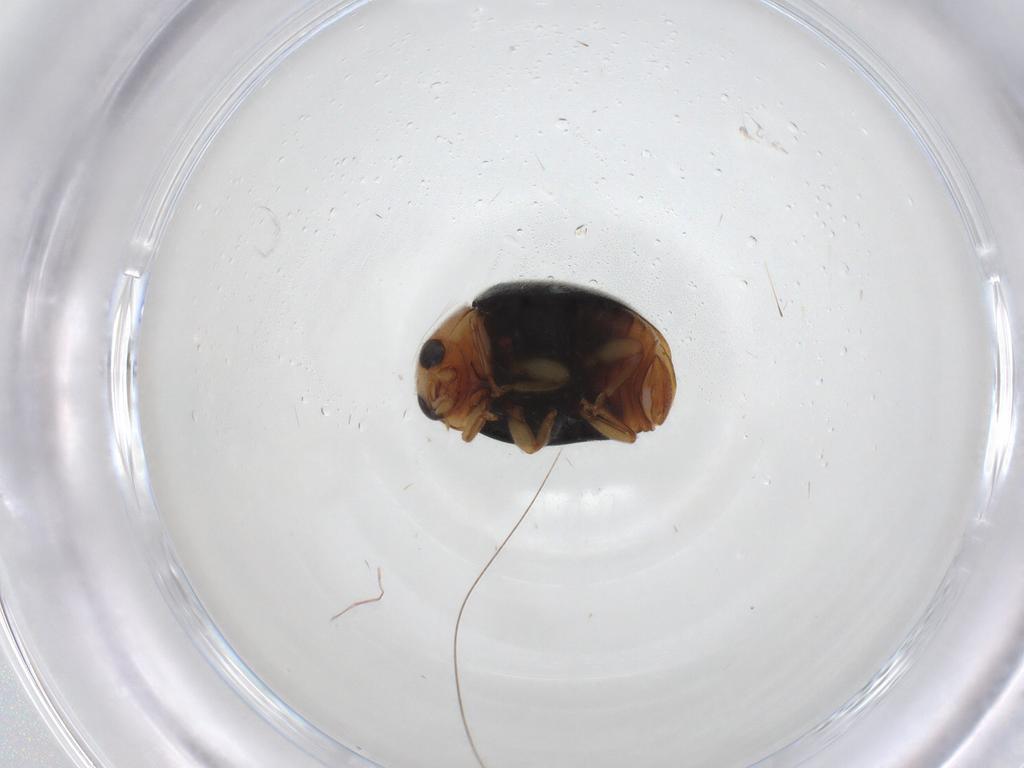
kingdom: Animalia
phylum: Arthropoda
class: Insecta
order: Coleoptera
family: Coccinellidae
